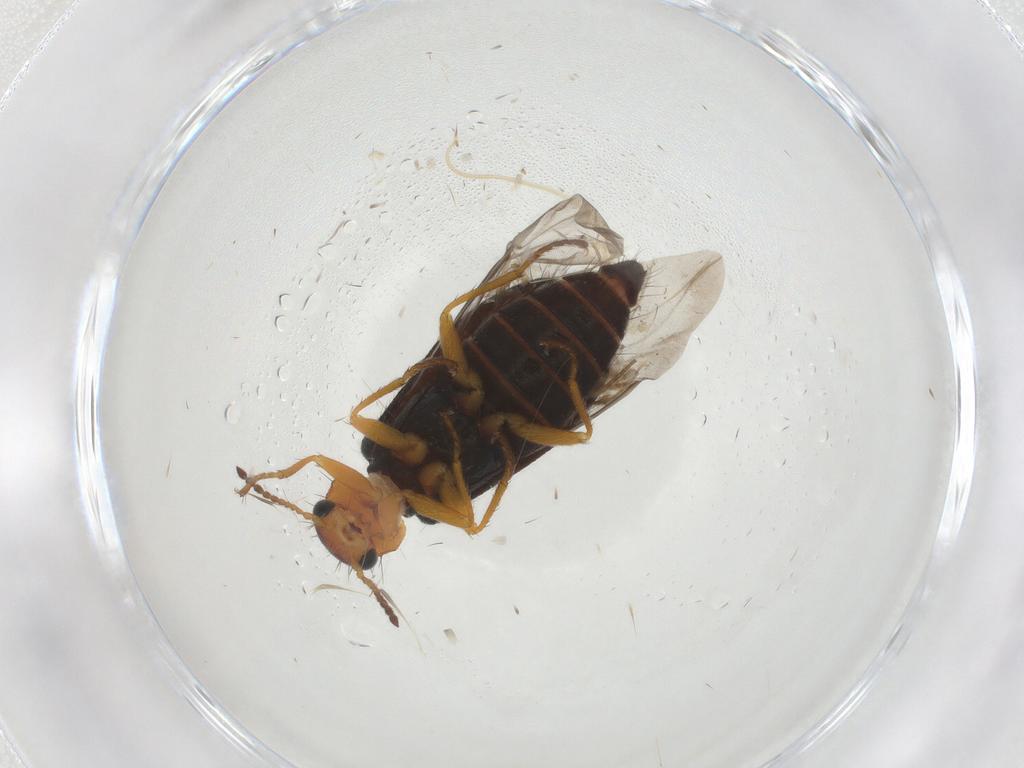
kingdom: Animalia
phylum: Arthropoda
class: Insecta
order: Coleoptera
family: Melyridae
